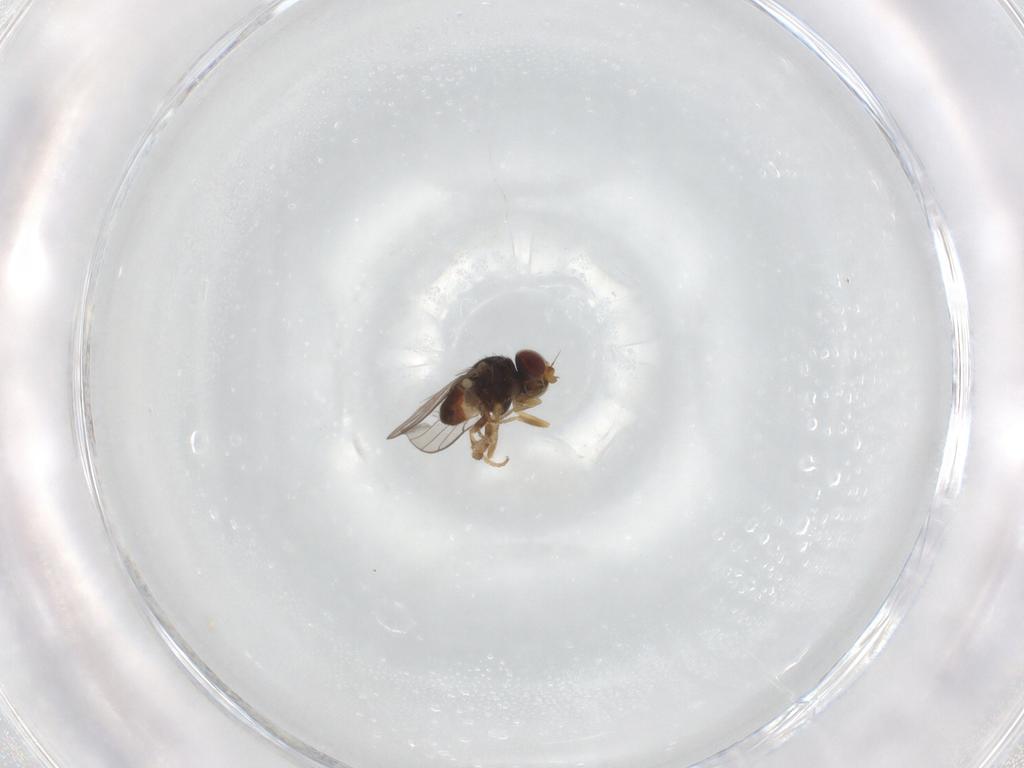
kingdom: Animalia
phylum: Arthropoda
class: Insecta
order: Diptera
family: Chloropidae
